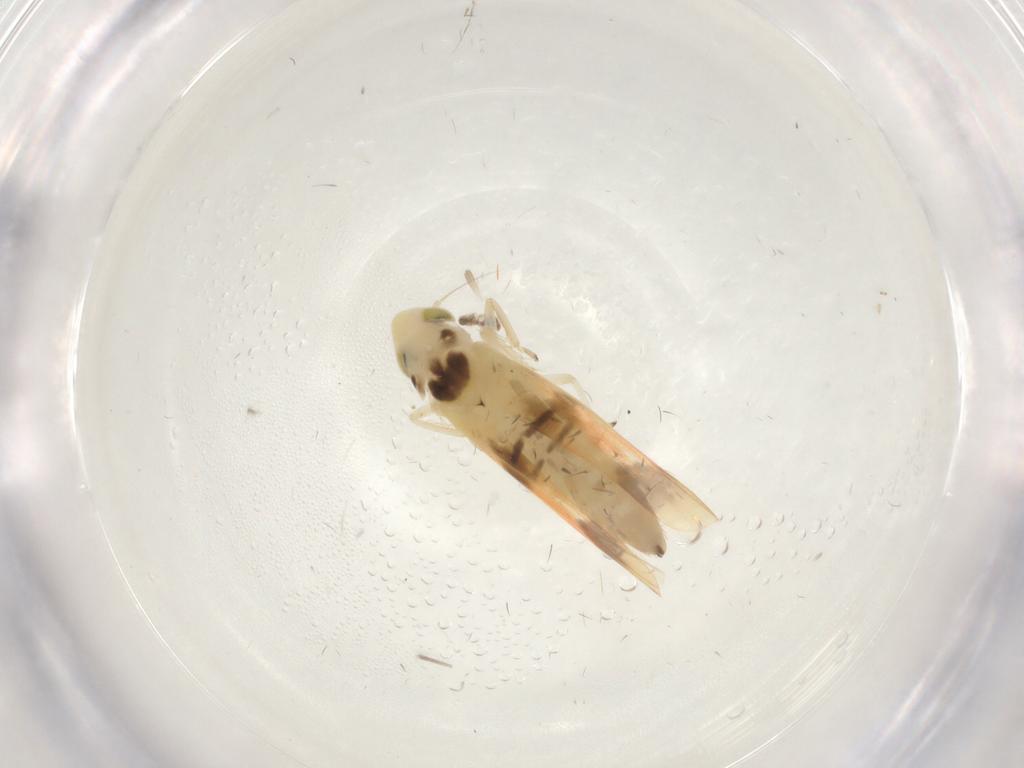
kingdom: Animalia
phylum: Arthropoda
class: Insecta
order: Hemiptera
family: Cicadellidae
